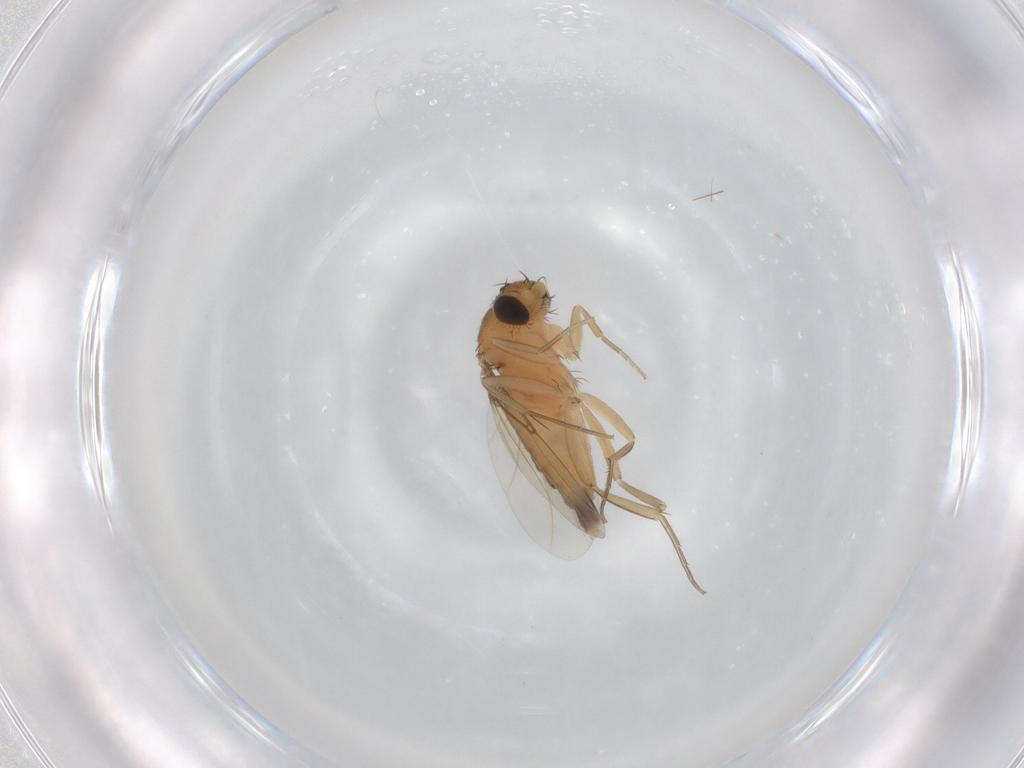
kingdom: Animalia
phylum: Arthropoda
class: Insecta
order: Diptera
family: Phoridae
